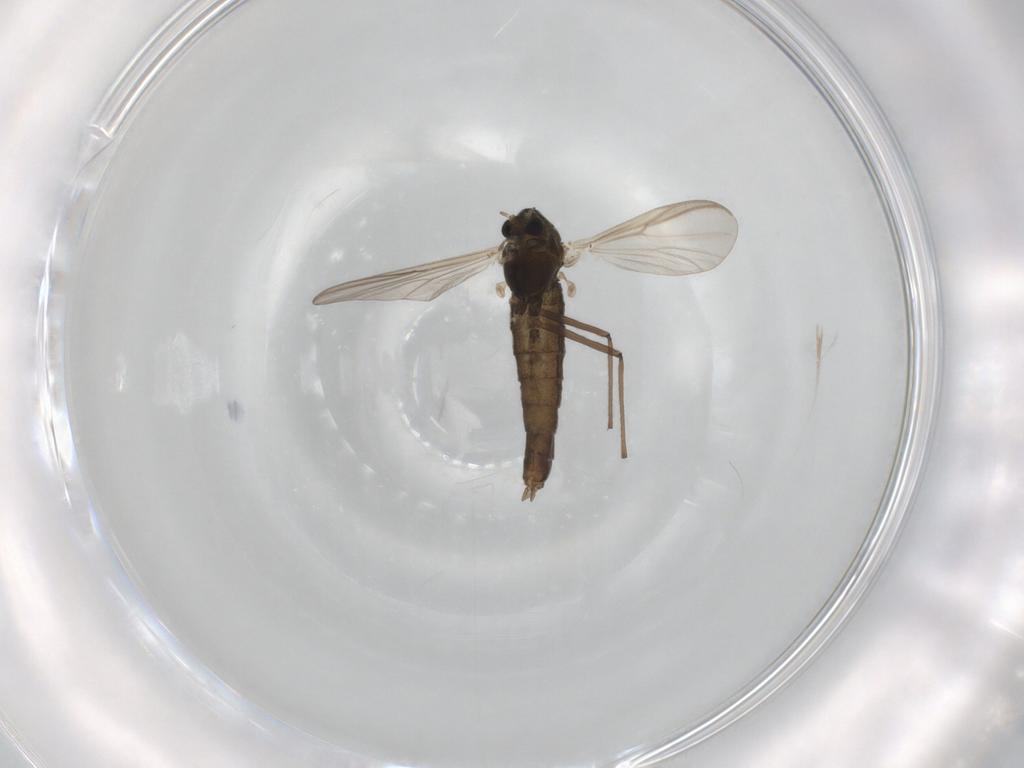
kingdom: Animalia
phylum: Arthropoda
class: Insecta
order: Diptera
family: Chironomidae
